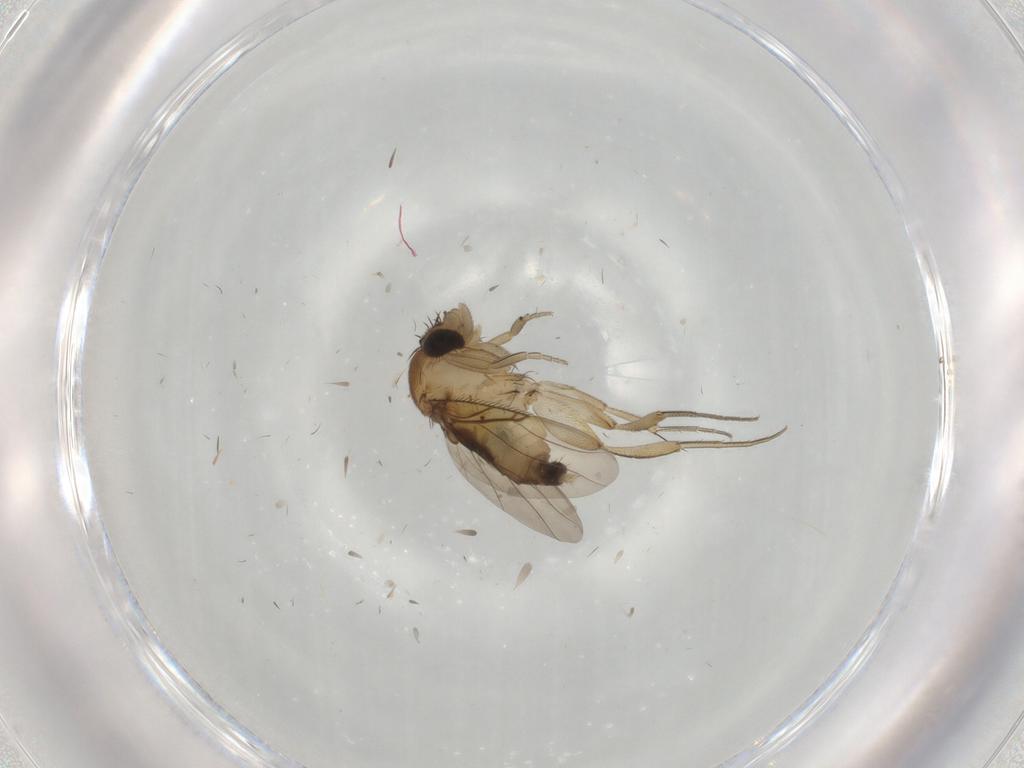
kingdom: Animalia
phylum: Arthropoda
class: Insecta
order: Diptera
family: Phoridae
